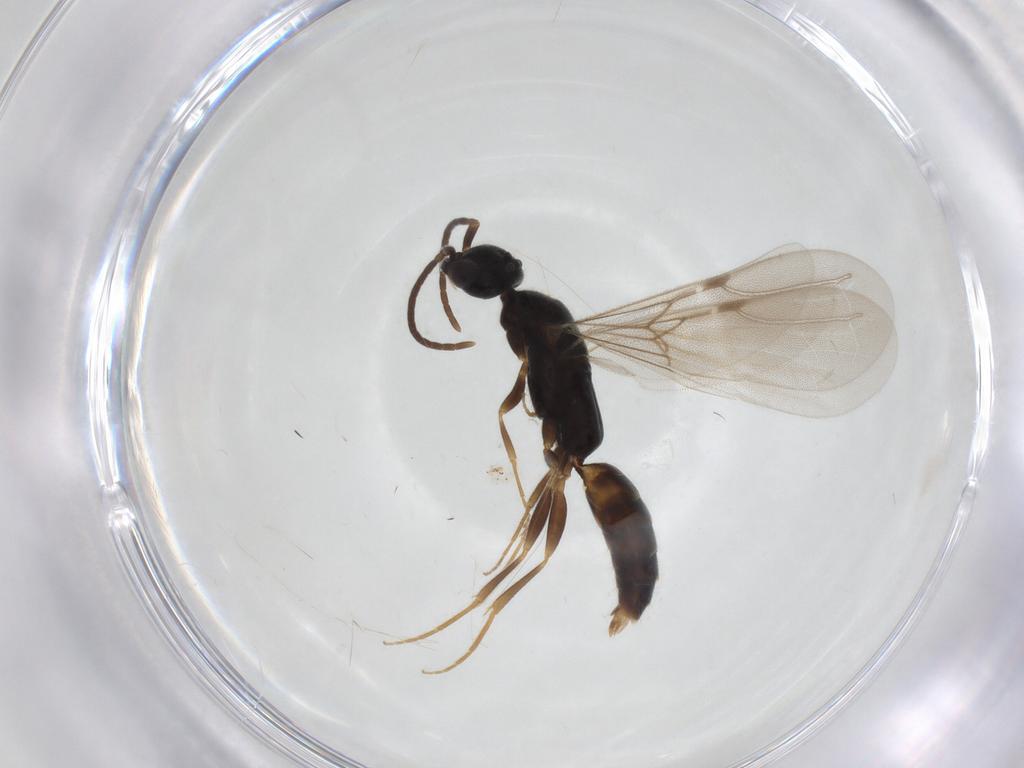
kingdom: Animalia
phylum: Arthropoda
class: Insecta
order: Hymenoptera
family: Bethylidae
